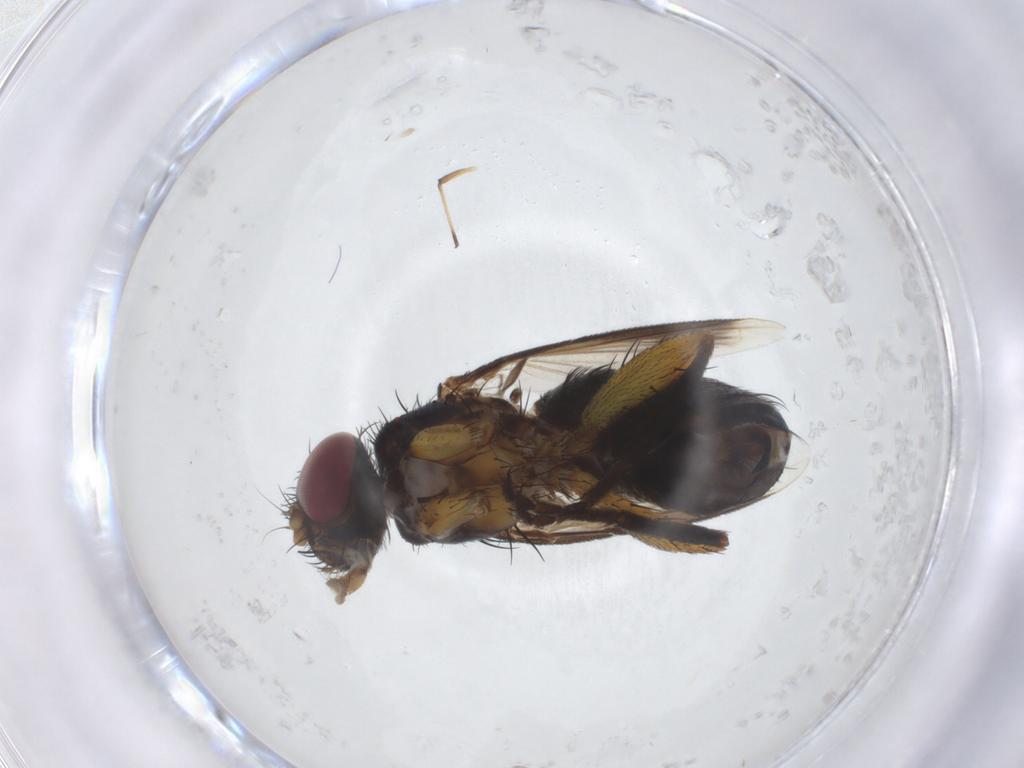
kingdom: Animalia
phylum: Arthropoda
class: Insecta
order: Diptera
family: Tachinidae
